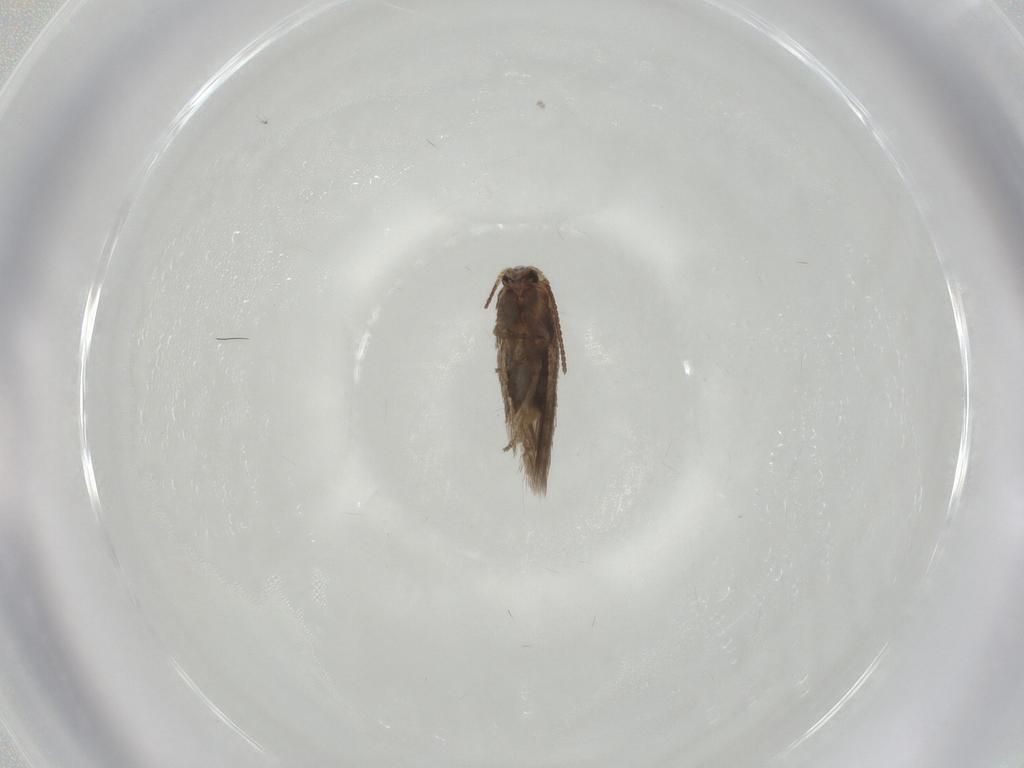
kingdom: Animalia
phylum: Arthropoda
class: Insecta
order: Lepidoptera
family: Nepticulidae
